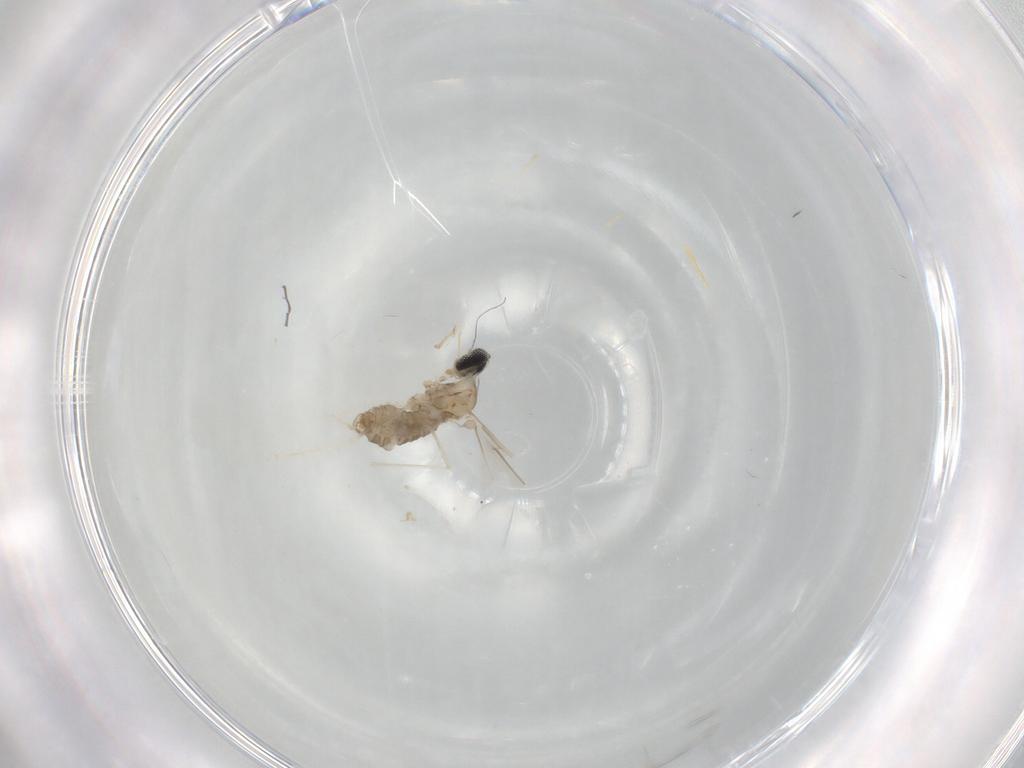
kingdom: Animalia
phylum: Arthropoda
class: Insecta
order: Diptera
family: Cecidomyiidae
